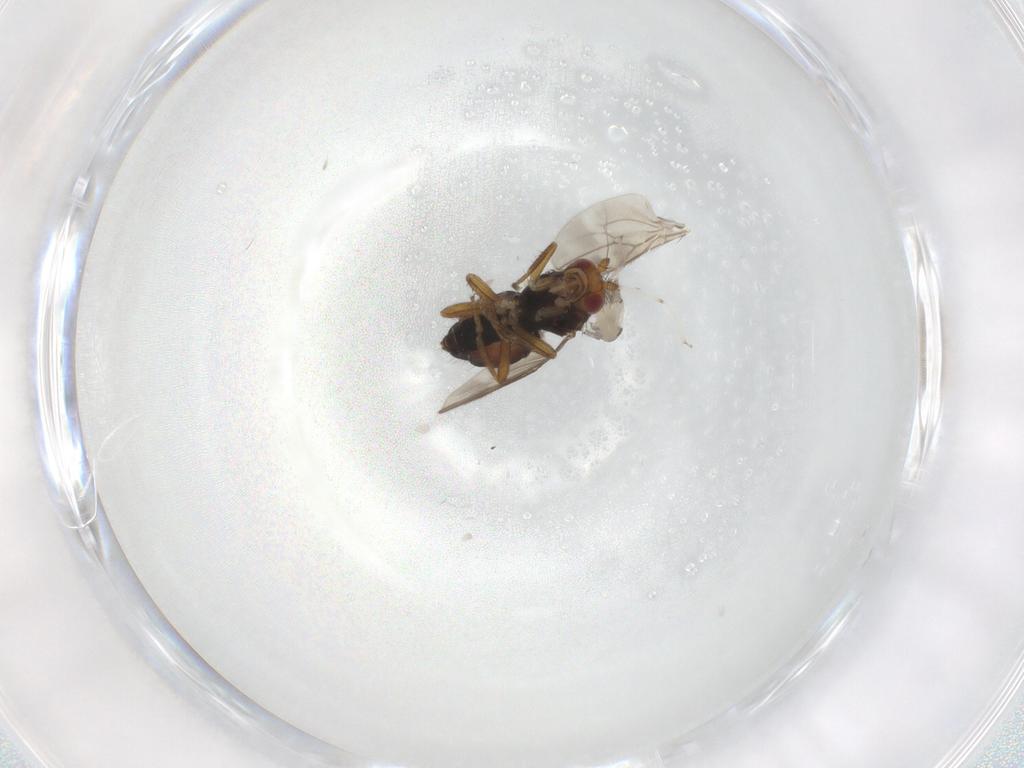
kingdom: Animalia
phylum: Arthropoda
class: Insecta
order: Diptera
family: Sphaeroceridae
